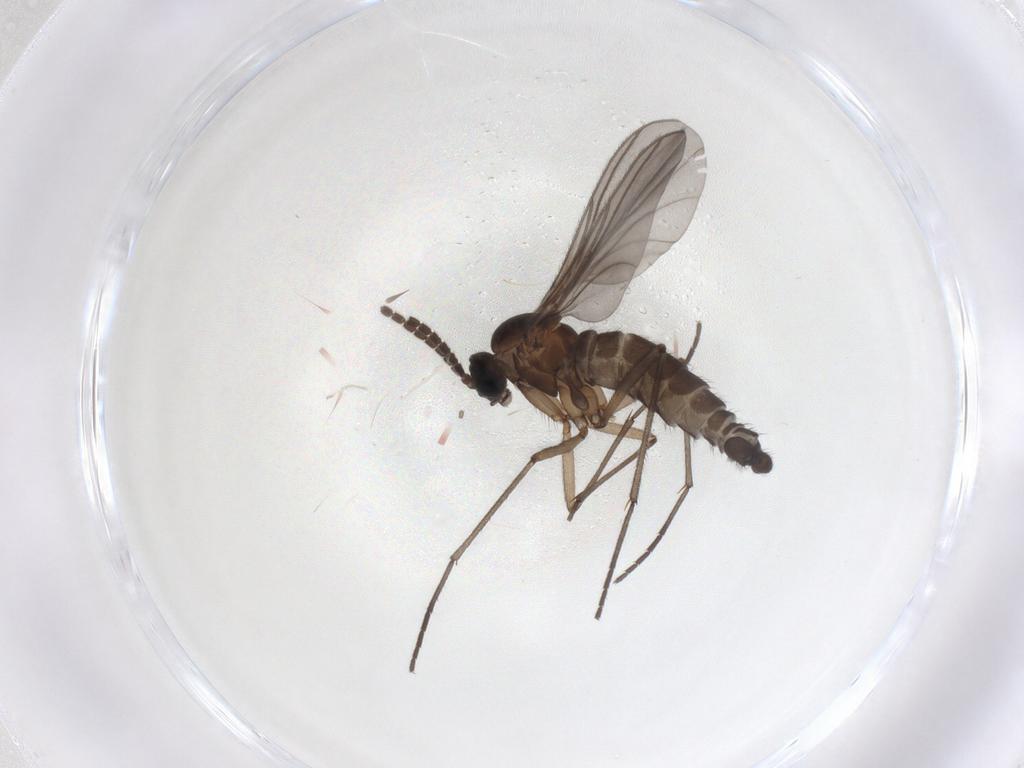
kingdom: Animalia
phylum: Arthropoda
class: Insecta
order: Diptera
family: Sciaridae
